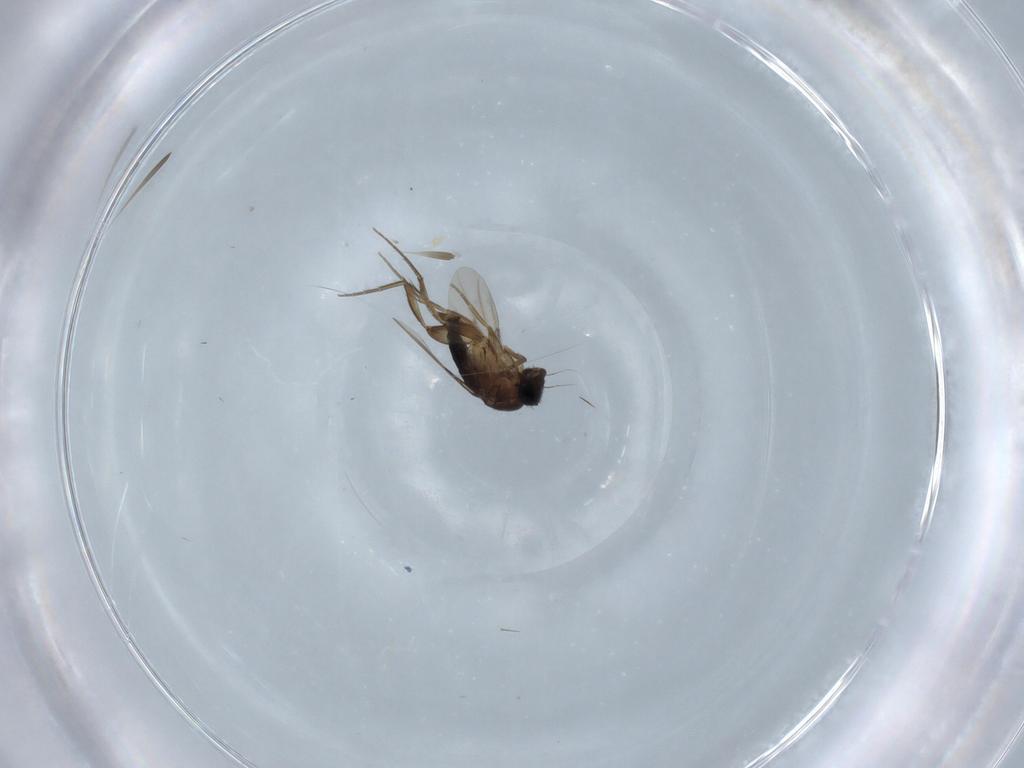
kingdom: Animalia
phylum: Arthropoda
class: Insecta
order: Diptera
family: Phoridae
